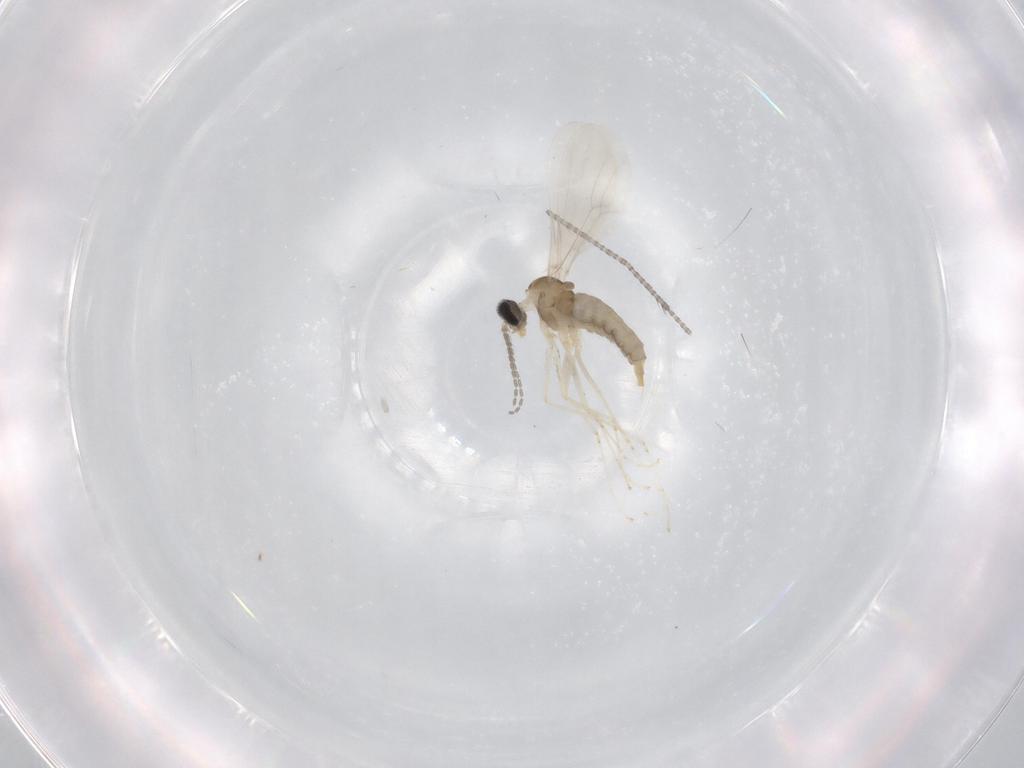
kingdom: Animalia
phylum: Arthropoda
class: Insecta
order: Diptera
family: Cecidomyiidae
